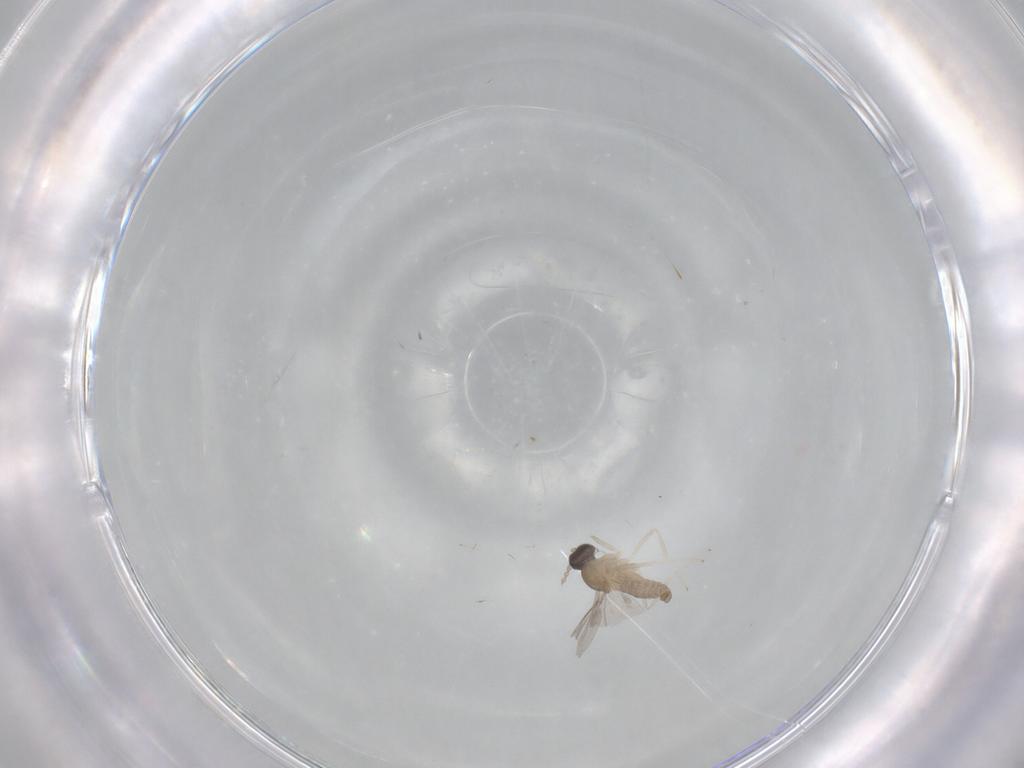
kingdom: Animalia
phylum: Arthropoda
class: Insecta
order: Diptera
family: Cecidomyiidae
